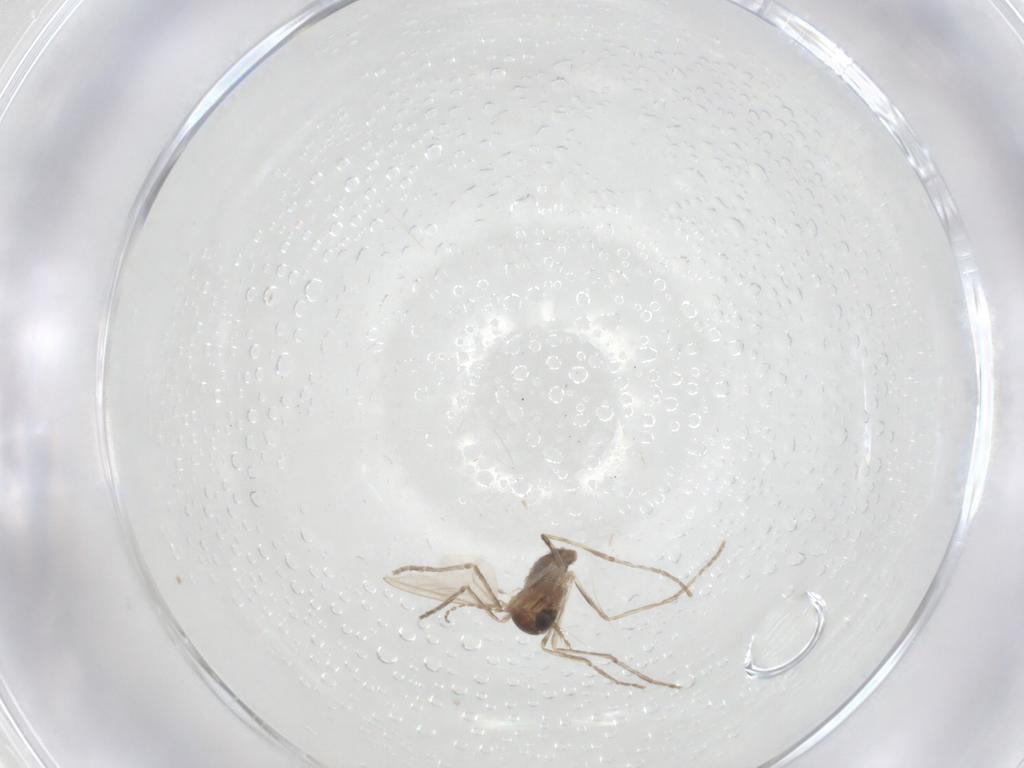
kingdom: Animalia
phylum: Arthropoda
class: Insecta
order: Diptera
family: Cecidomyiidae
